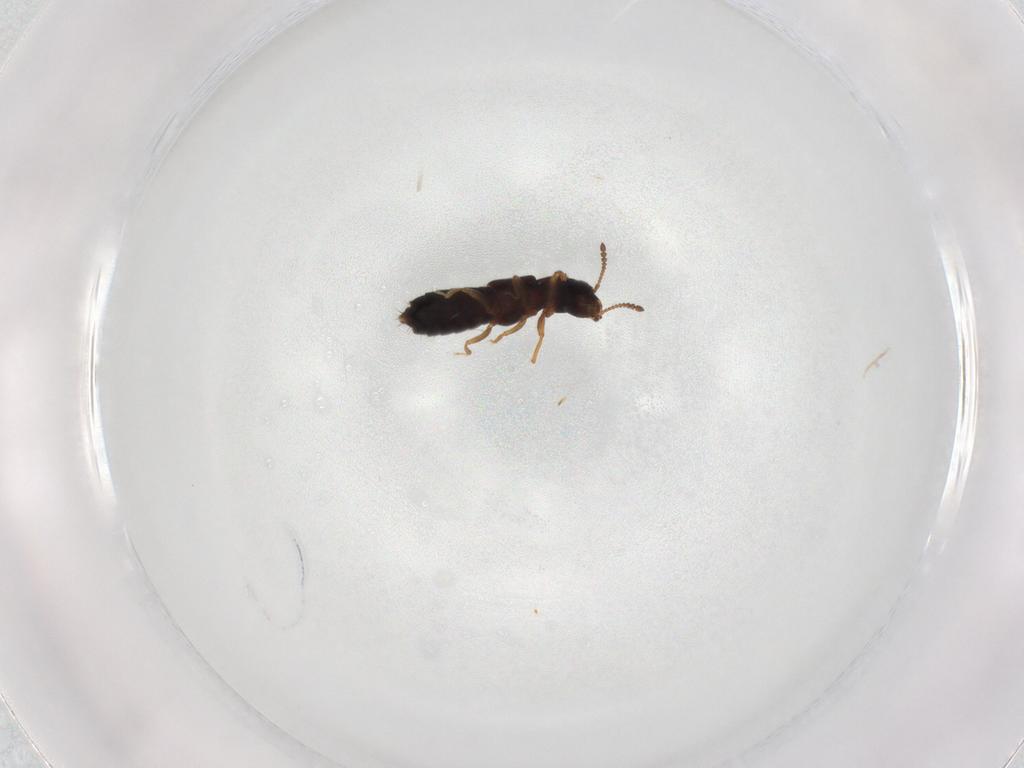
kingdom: Animalia
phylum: Arthropoda
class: Insecta
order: Coleoptera
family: Staphylinidae
